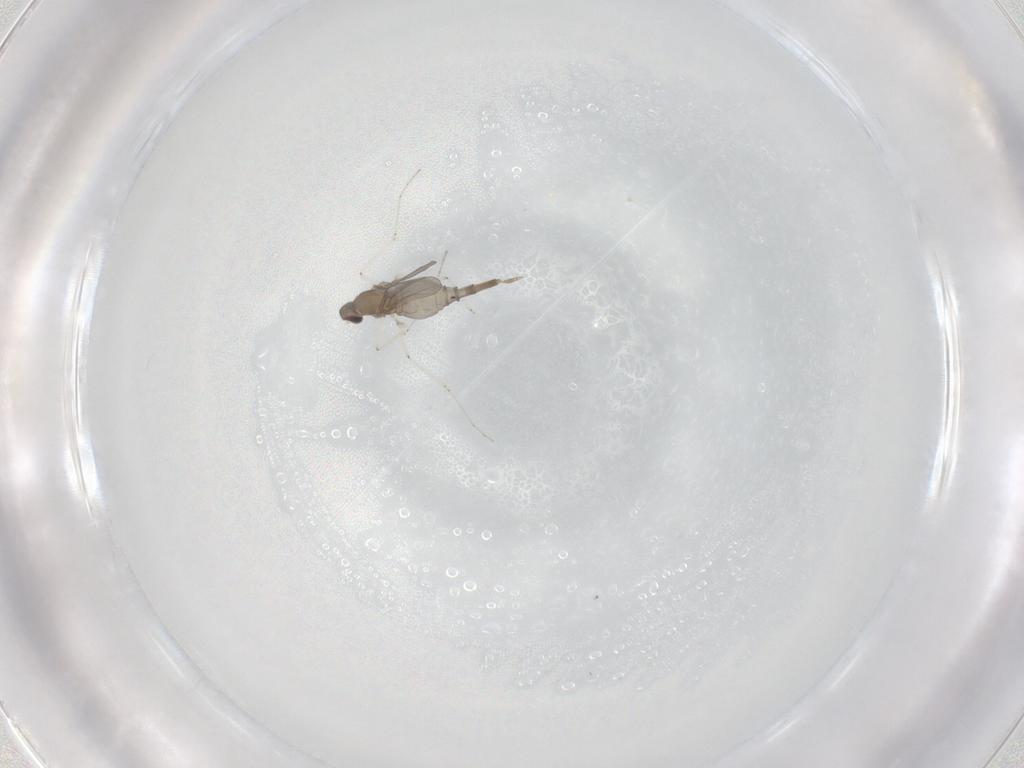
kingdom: Animalia
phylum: Arthropoda
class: Insecta
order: Diptera
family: Cecidomyiidae
